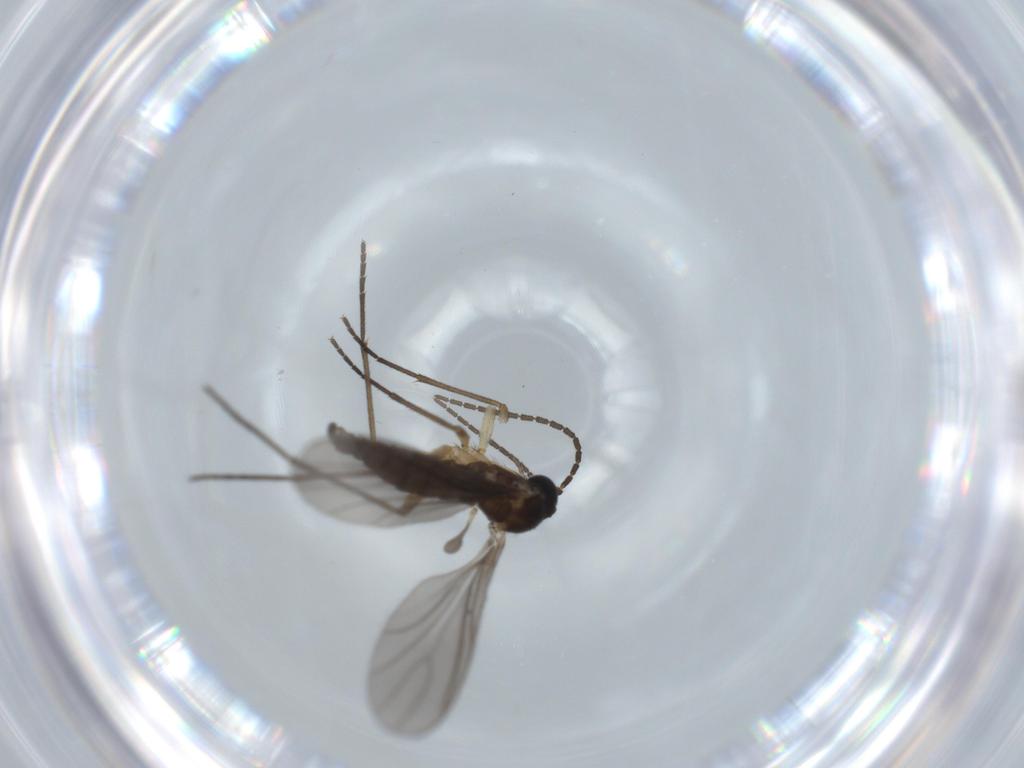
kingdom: Animalia
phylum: Arthropoda
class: Insecta
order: Diptera
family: Sciaridae
